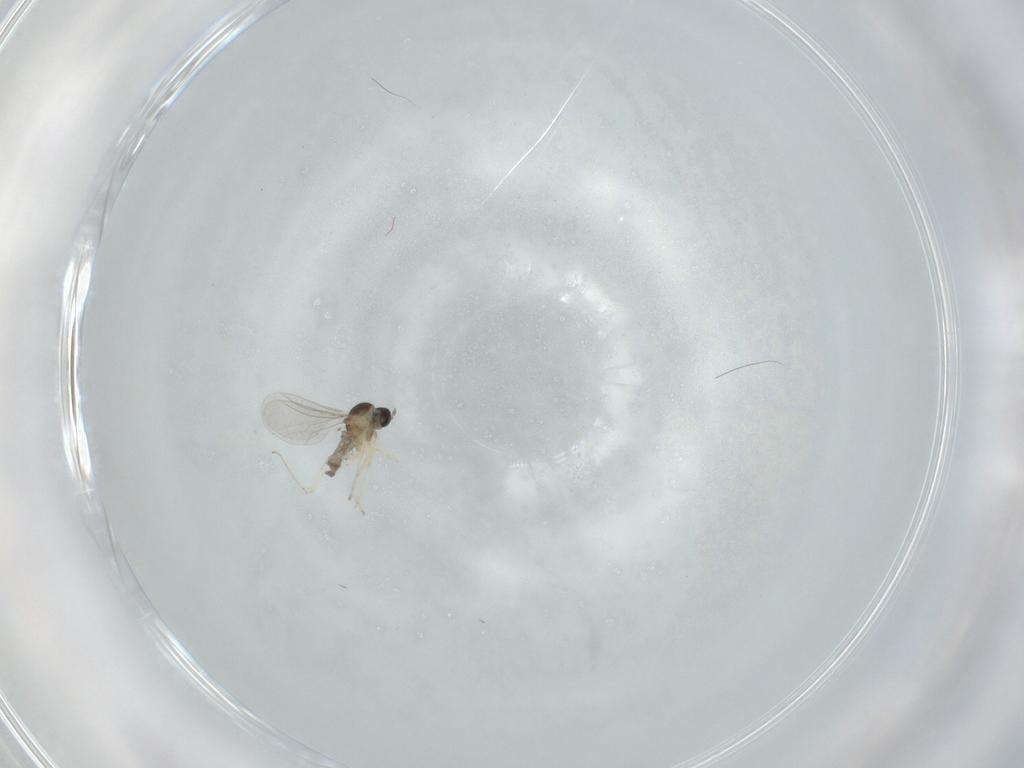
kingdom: Animalia
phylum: Arthropoda
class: Insecta
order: Diptera
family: Cecidomyiidae
